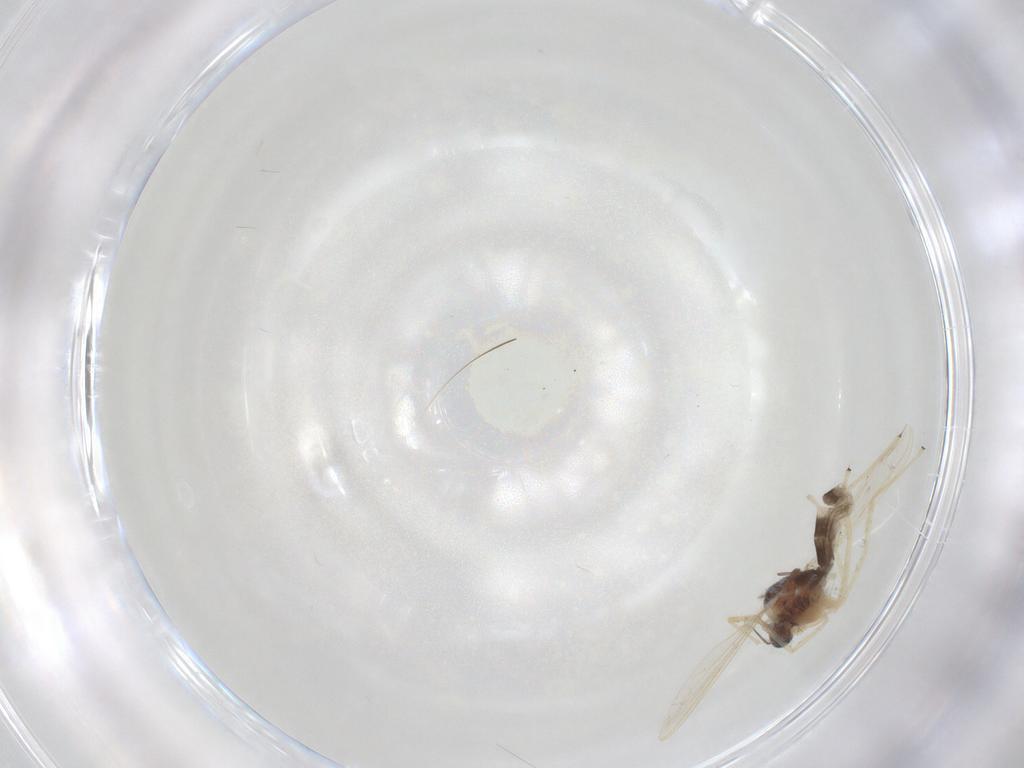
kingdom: Animalia
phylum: Arthropoda
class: Insecta
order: Diptera
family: Chironomidae
